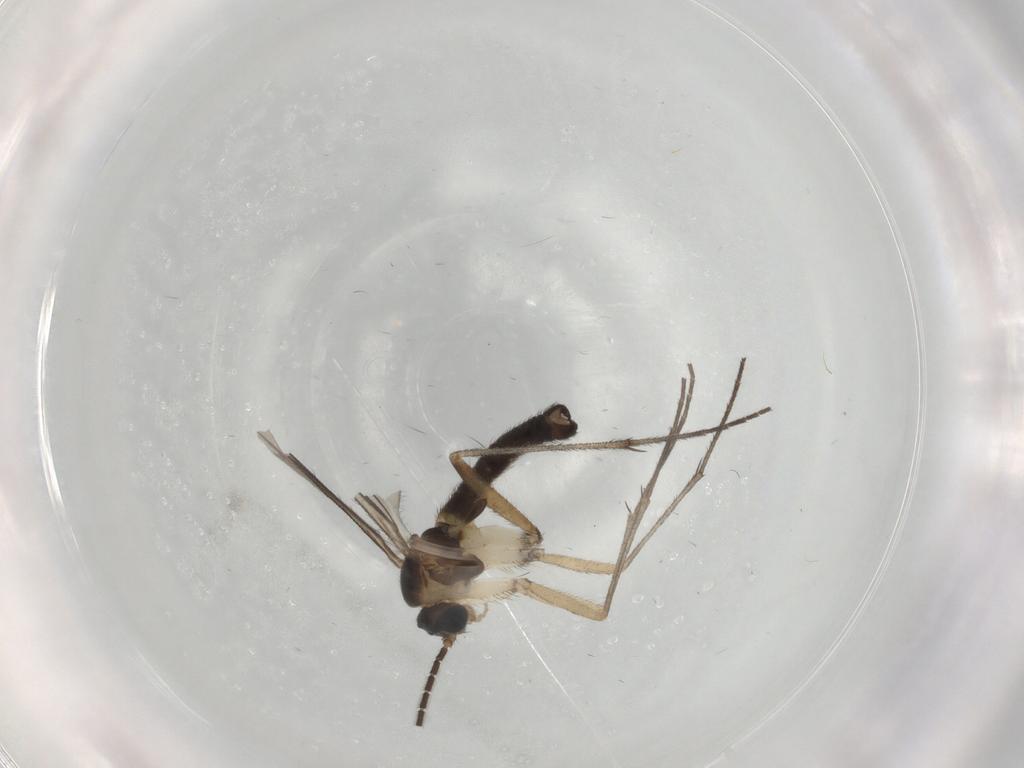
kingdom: Animalia
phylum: Arthropoda
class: Insecta
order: Diptera
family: Sciaridae
